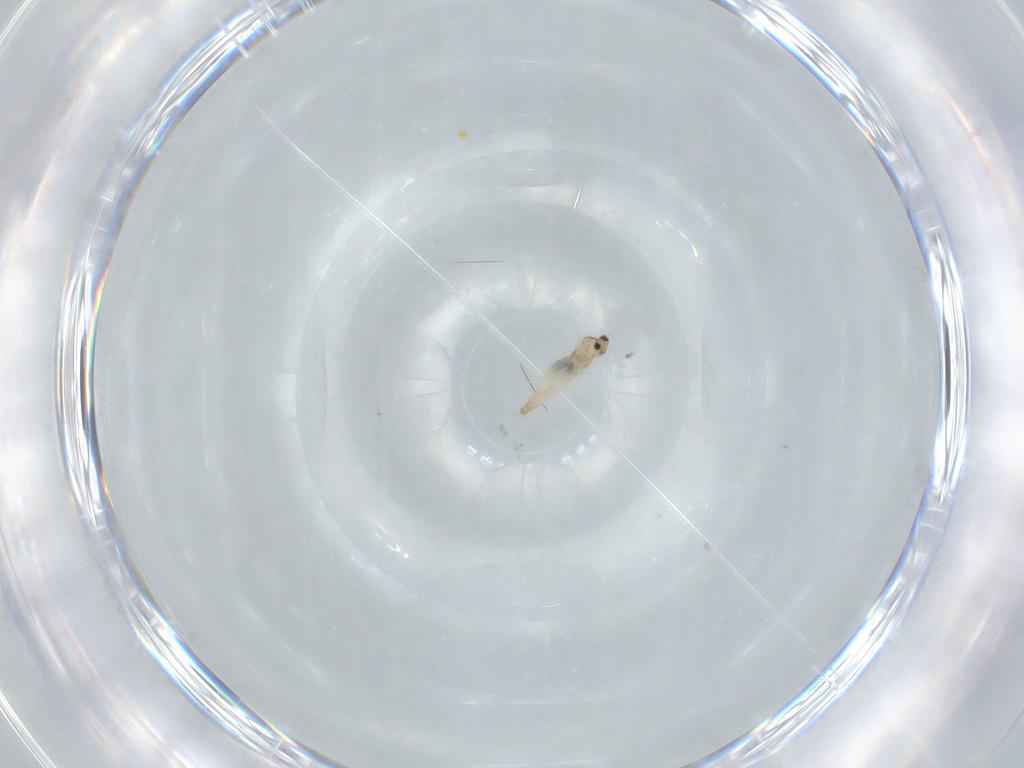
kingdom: Animalia
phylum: Arthropoda
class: Insecta
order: Diptera
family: Cecidomyiidae
